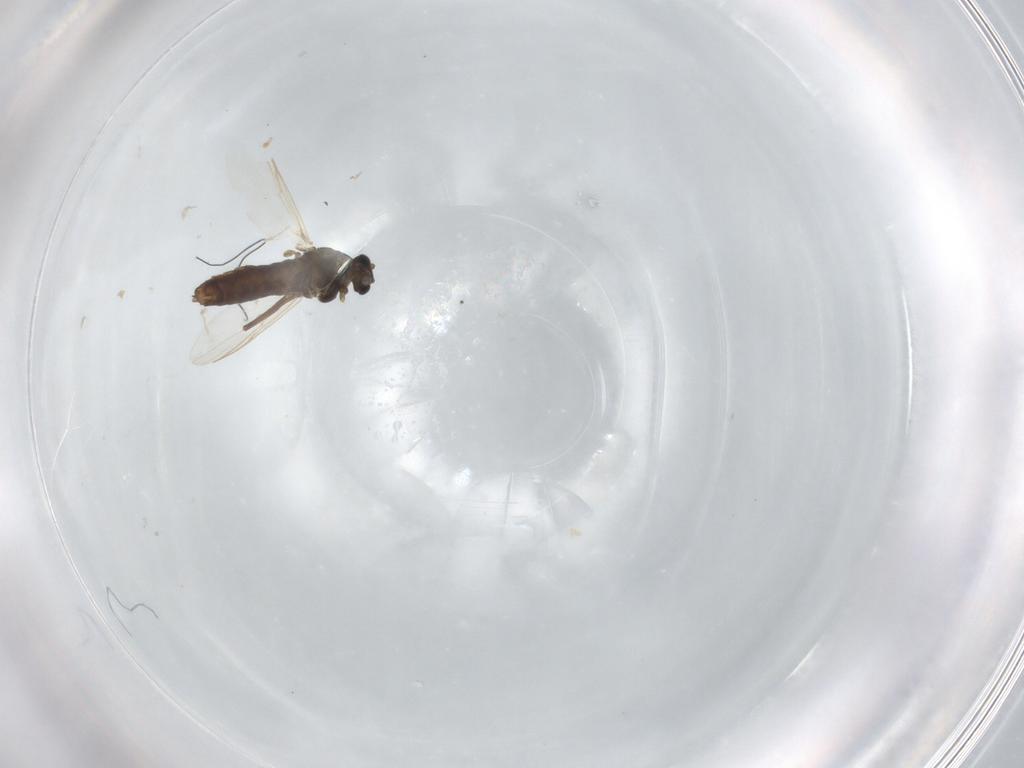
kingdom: Animalia
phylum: Arthropoda
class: Insecta
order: Diptera
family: Chironomidae
